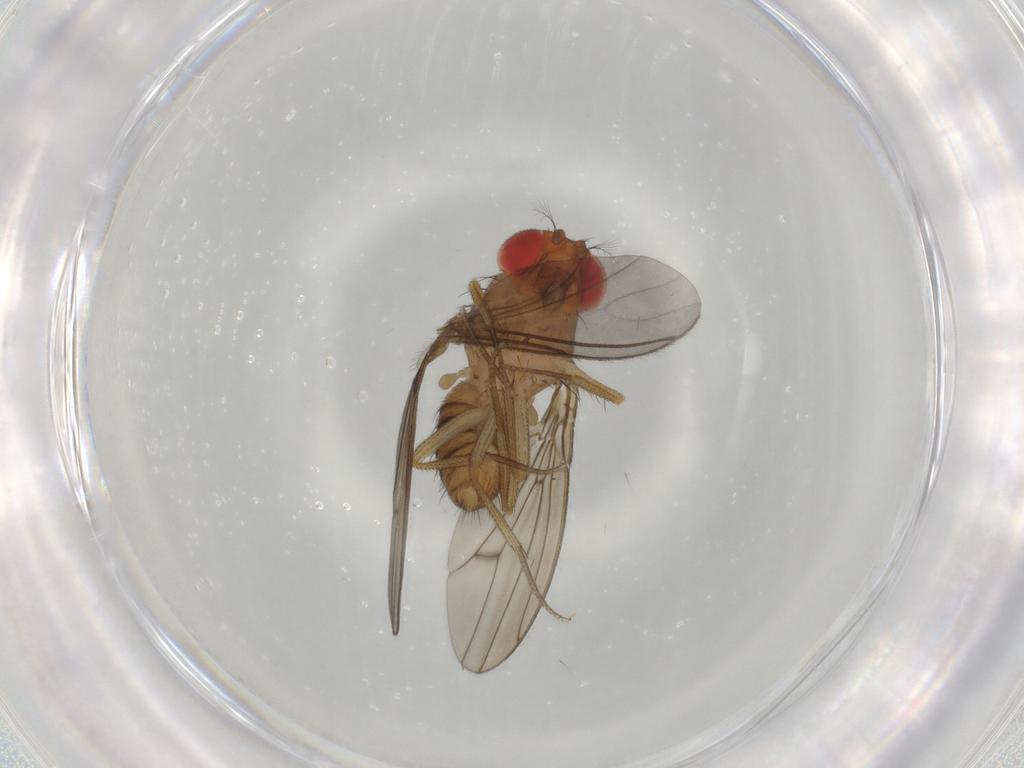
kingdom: Animalia
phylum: Arthropoda
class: Insecta
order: Diptera
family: Drosophilidae
